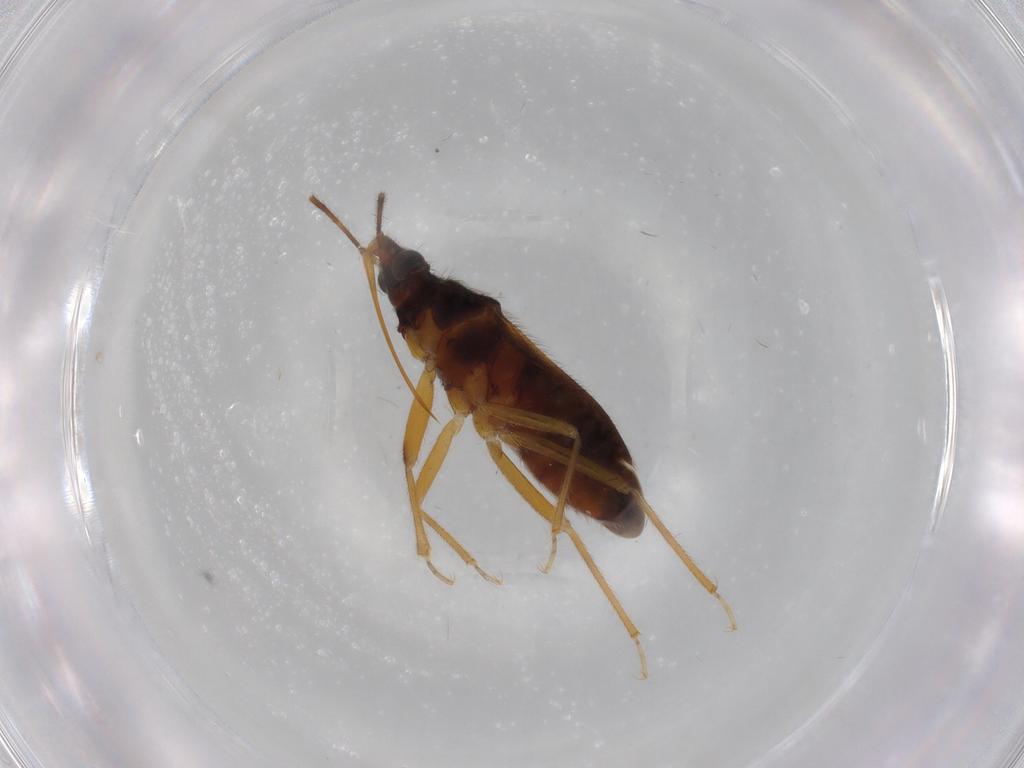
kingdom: Animalia
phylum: Arthropoda
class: Insecta
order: Hemiptera
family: Anthocoridae
